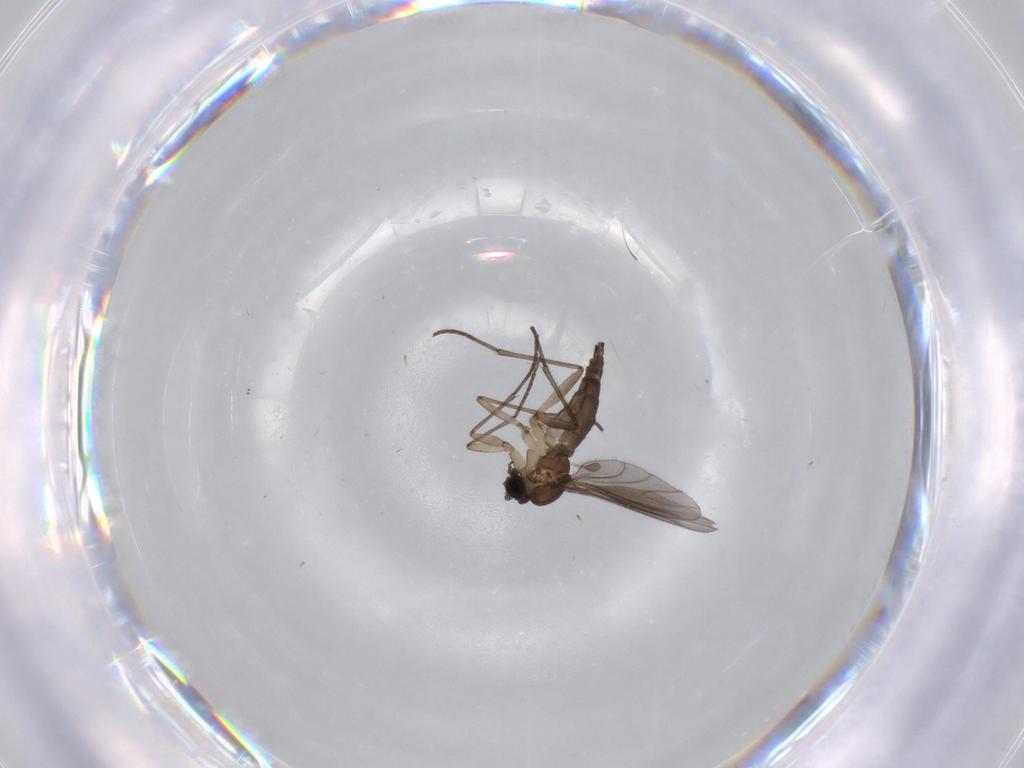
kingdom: Animalia
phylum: Arthropoda
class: Insecta
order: Diptera
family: Sciaridae
